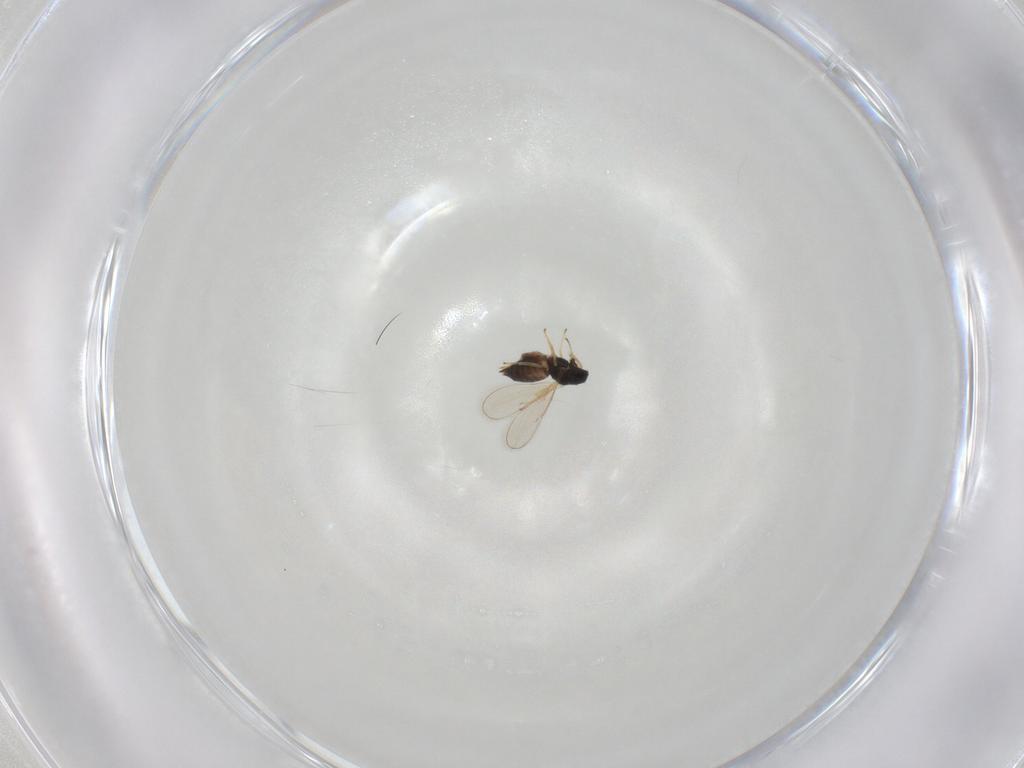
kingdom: Animalia
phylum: Arthropoda
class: Insecta
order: Hymenoptera
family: Eulophidae
